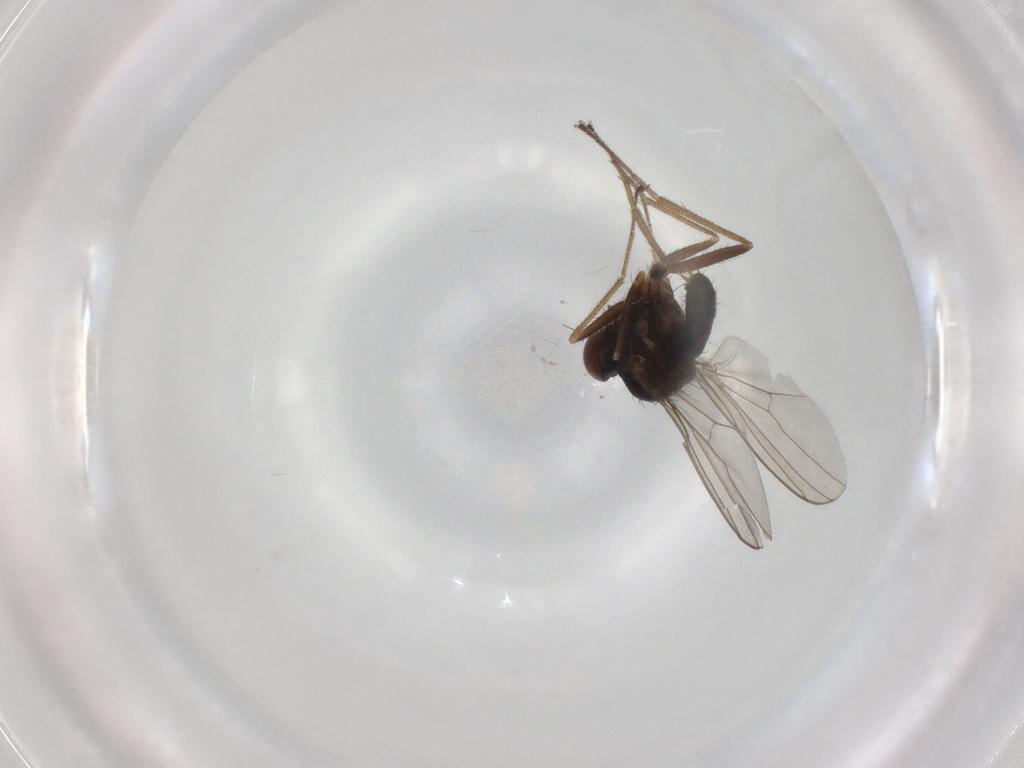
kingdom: Animalia
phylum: Arthropoda
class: Insecta
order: Diptera
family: Dolichopodidae
